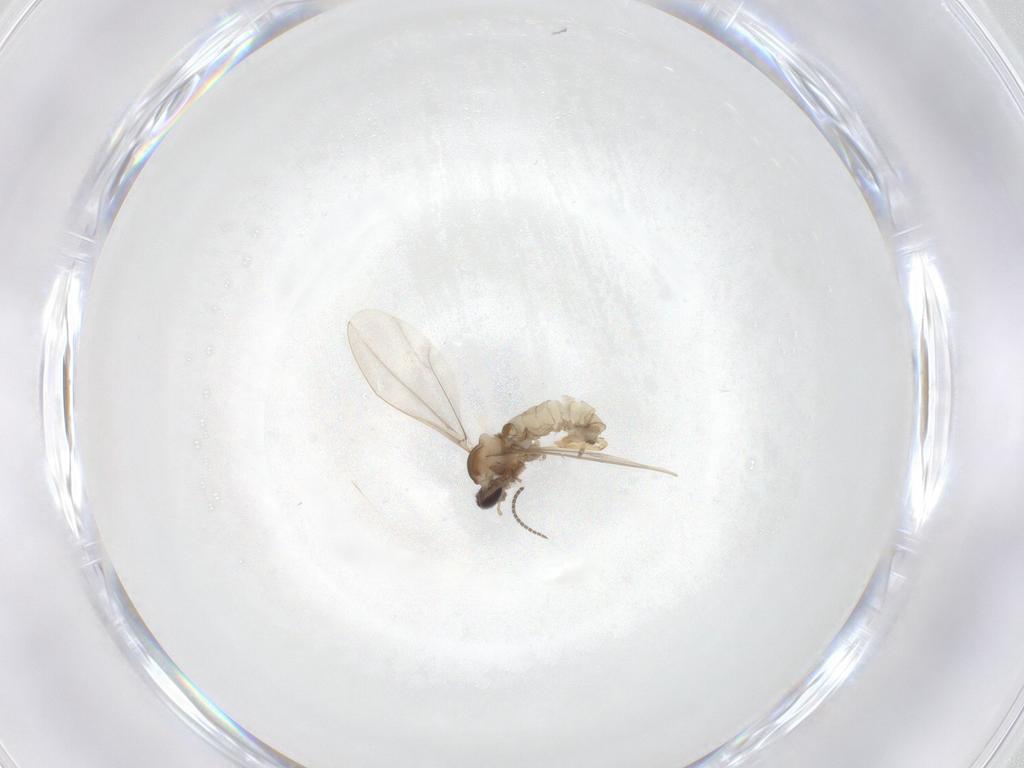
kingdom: Animalia
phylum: Arthropoda
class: Insecta
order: Diptera
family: Cecidomyiidae
